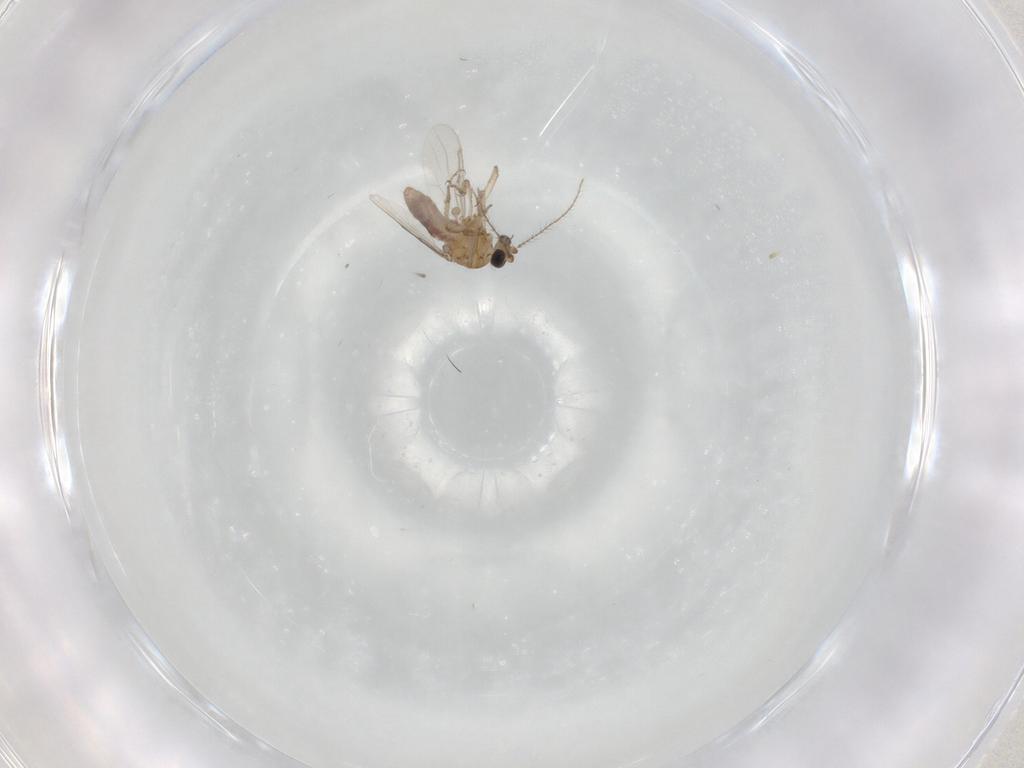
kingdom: Animalia
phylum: Arthropoda
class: Insecta
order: Diptera
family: Ceratopogonidae
